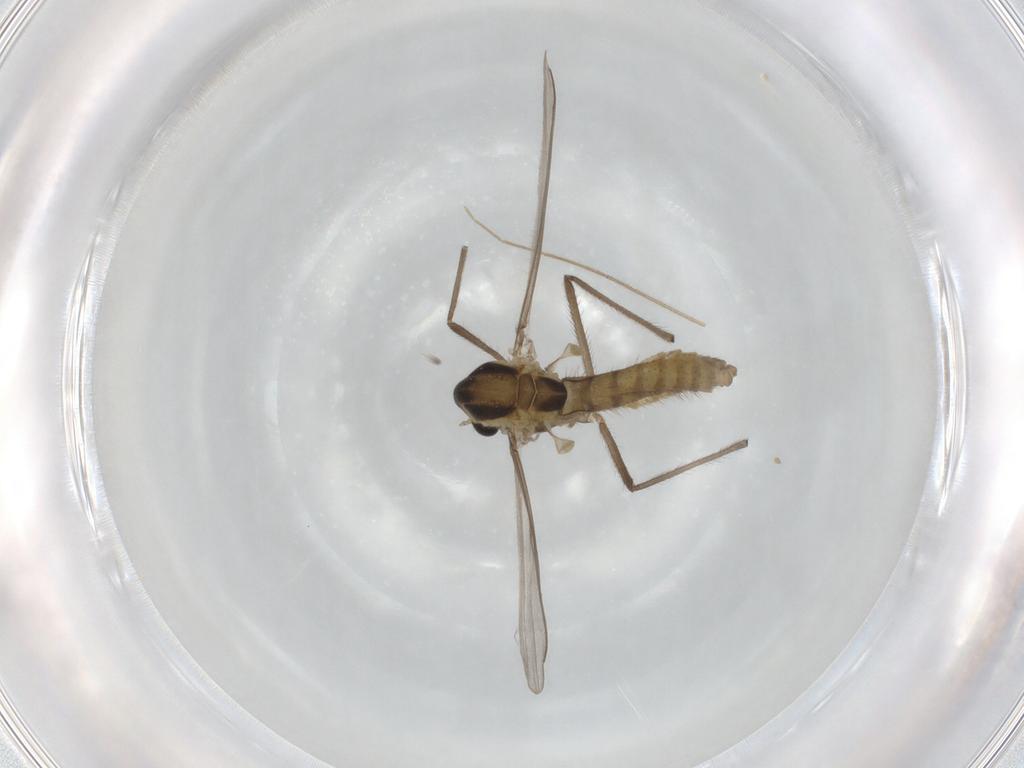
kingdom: Animalia
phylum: Arthropoda
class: Insecta
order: Diptera
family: Chironomidae
